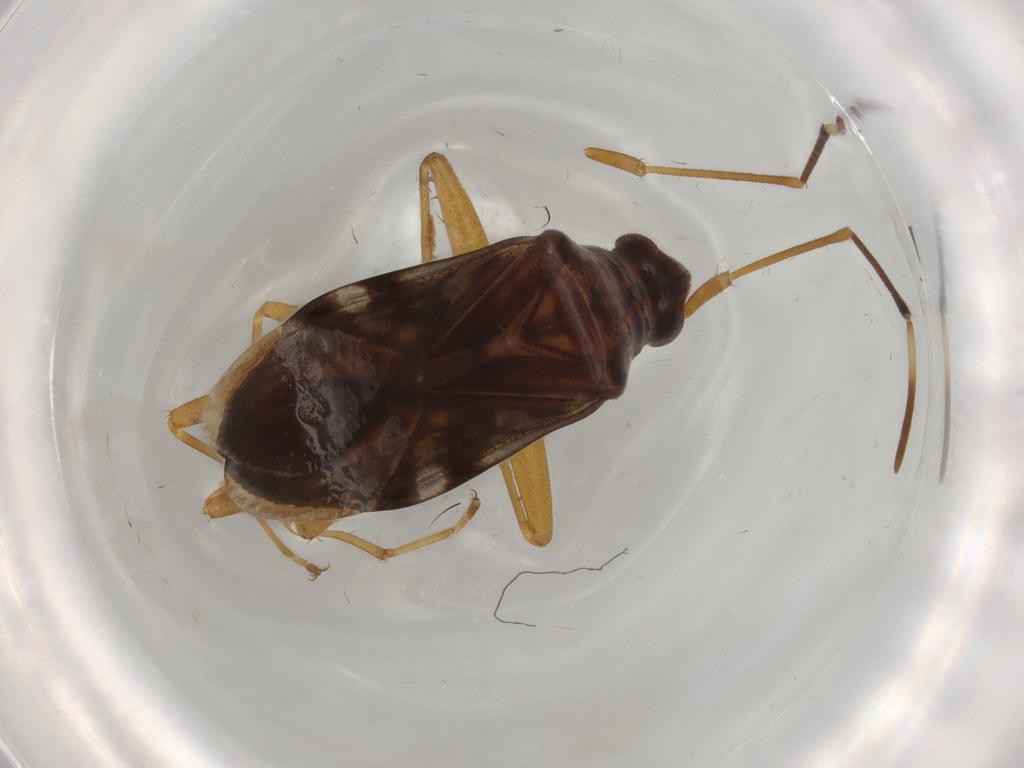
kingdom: Animalia
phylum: Arthropoda
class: Insecta
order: Hemiptera
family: Rhyparochromidae
